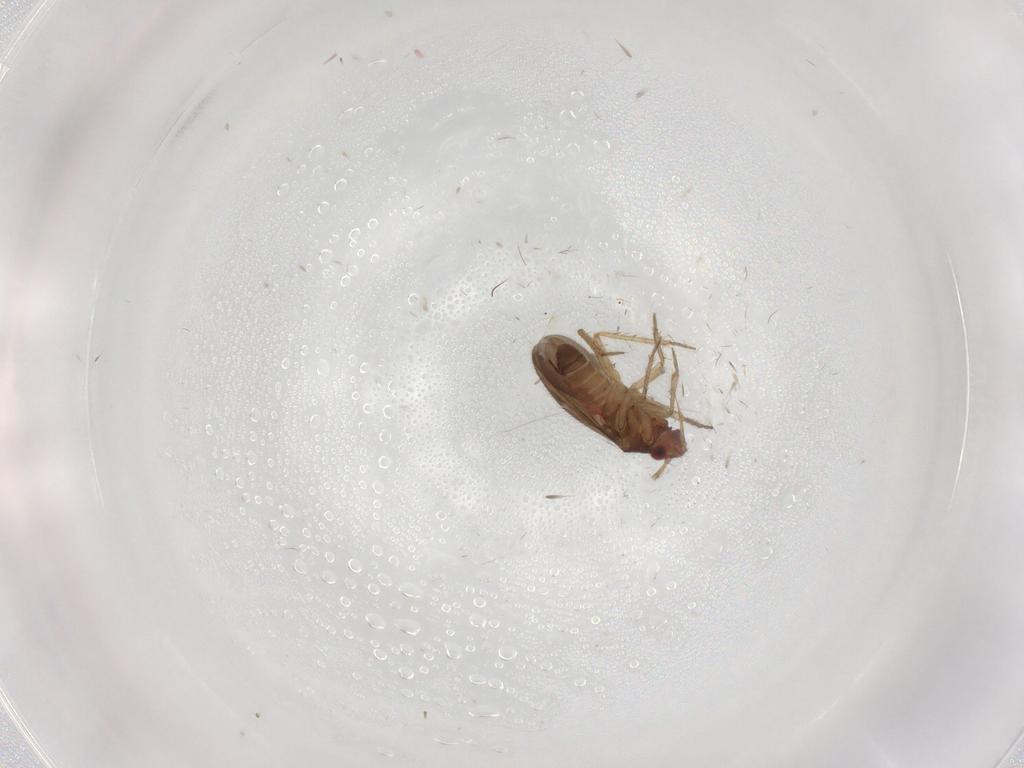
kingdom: Animalia
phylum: Arthropoda
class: Insecta
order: Hemiptera
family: Ceratocombidae
